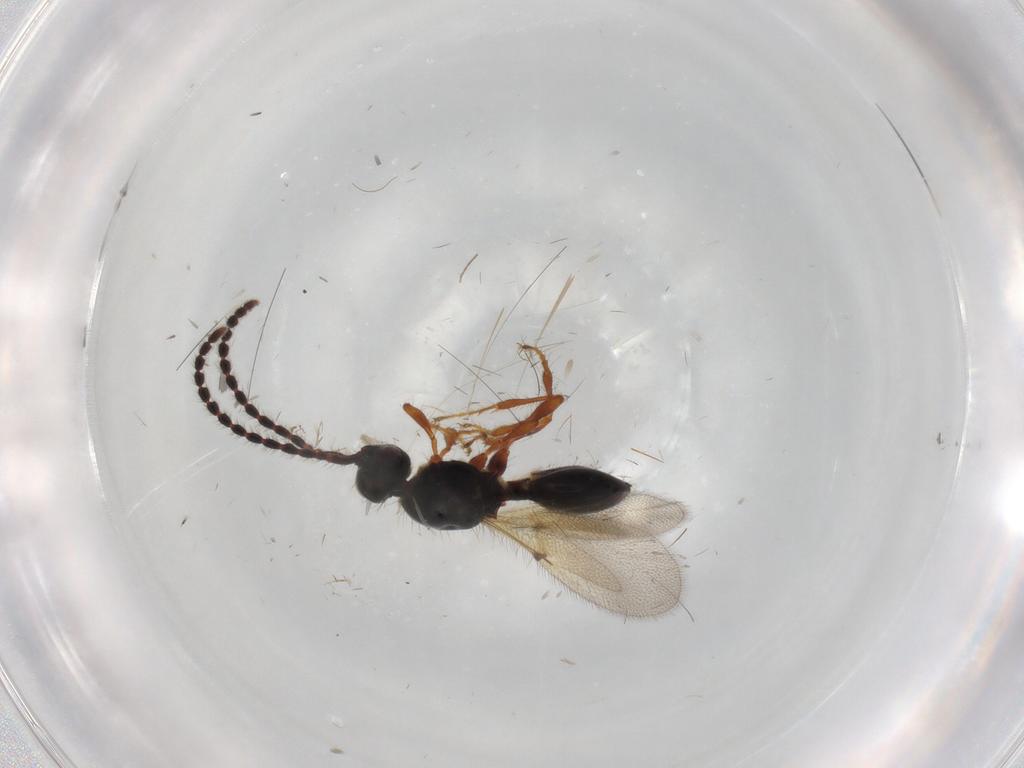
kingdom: Animalia
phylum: Arthropoda
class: Insecta
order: Hymenoptera
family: Diapriidae
